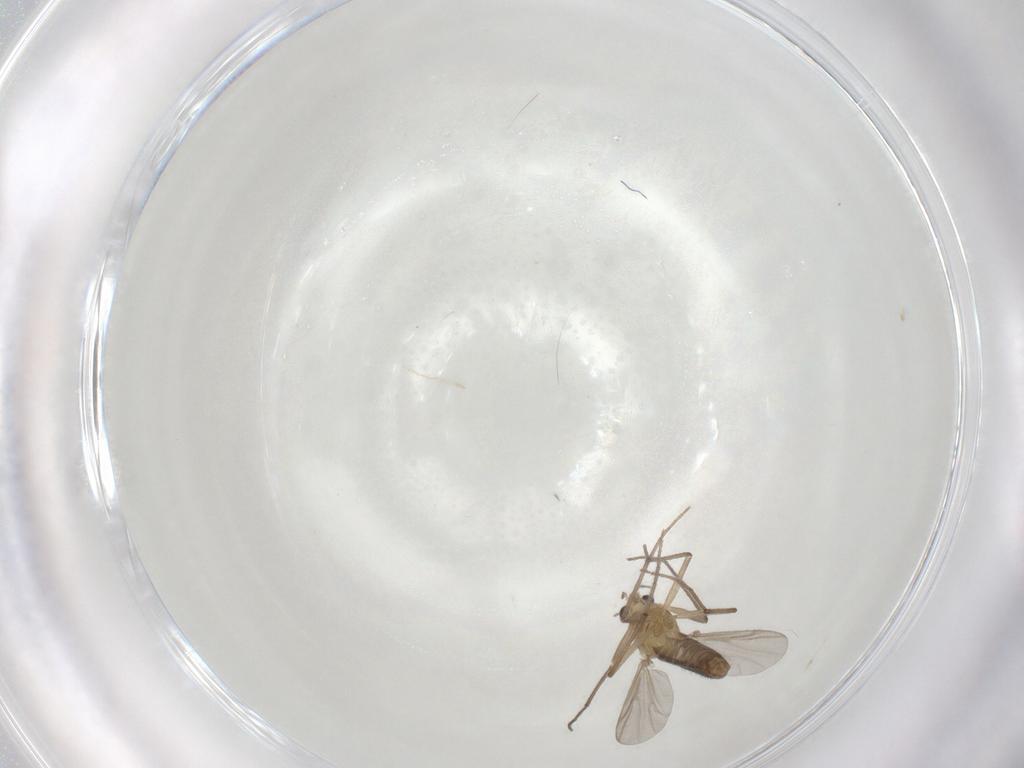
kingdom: Animalia
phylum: Arthropoda
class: Insecta
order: Diptera
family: Chironomidae
